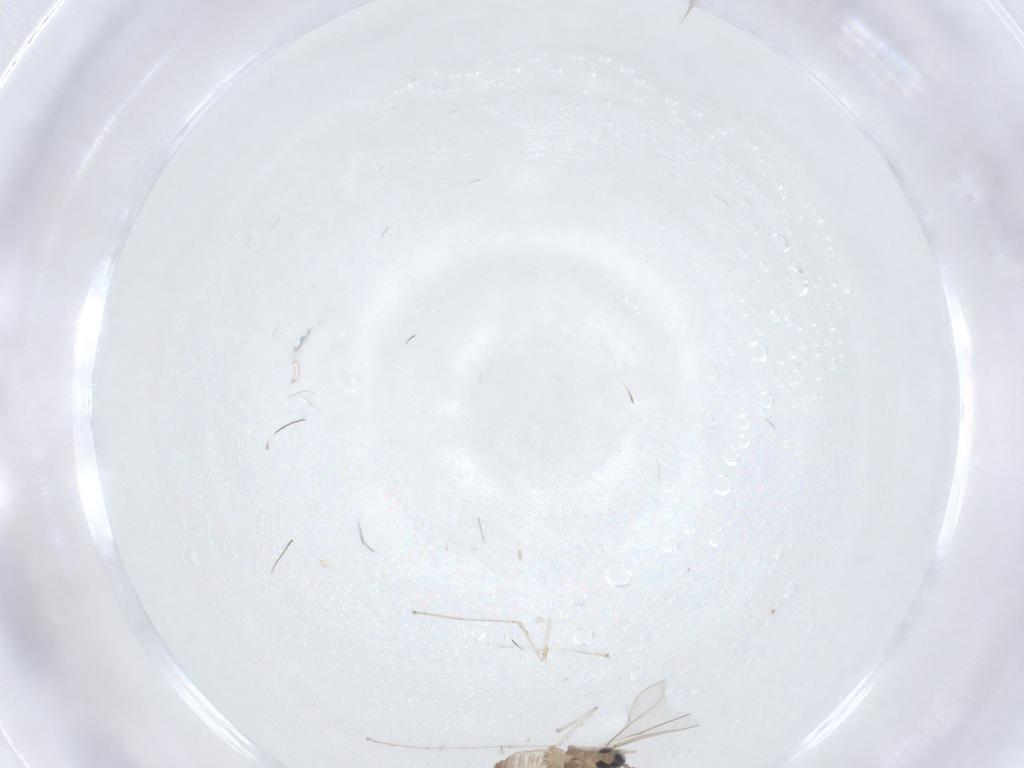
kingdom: Animalia
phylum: Arthropoda
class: Insecta
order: Diptera
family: Cecidomyiidae
